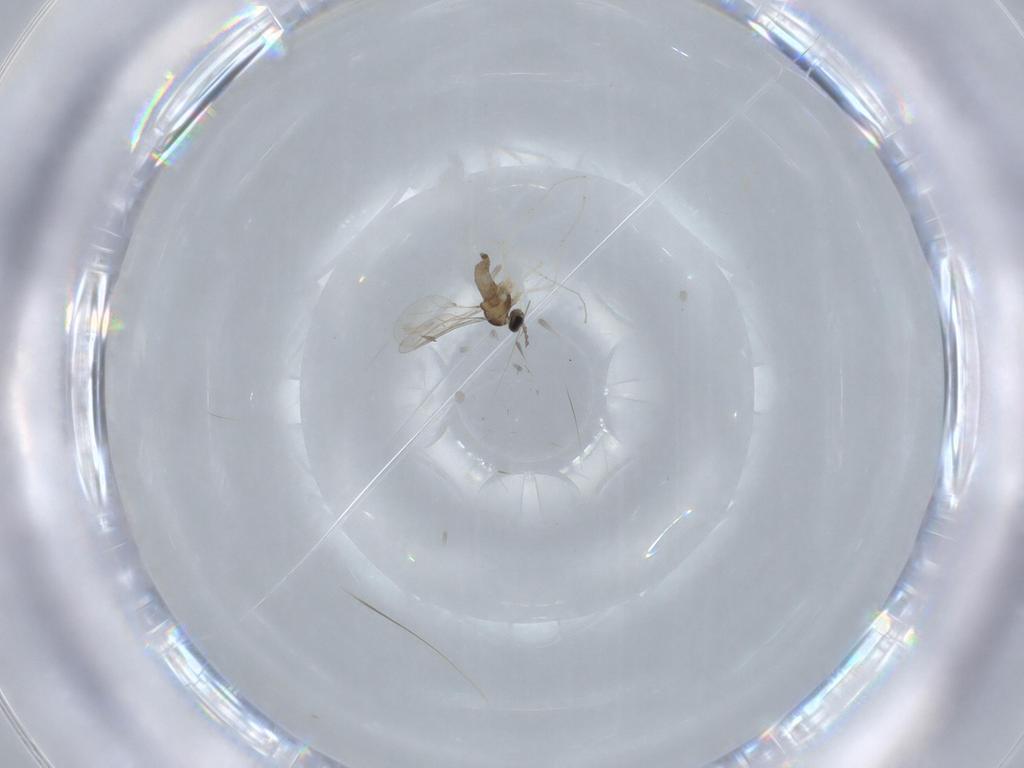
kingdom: Animalia
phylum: Arthropoda
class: Insecta
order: Diptera
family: Cecidomyiidae
